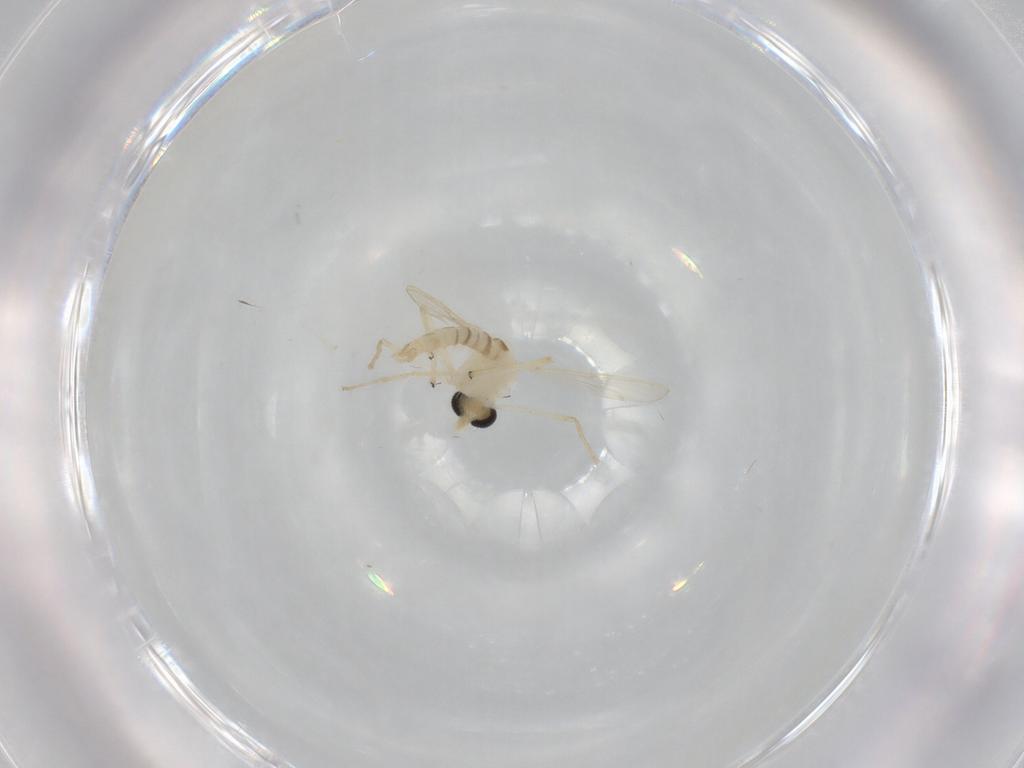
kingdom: Animalia
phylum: Arthropoda
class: Insecta
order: Diptera
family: Chironomidae
